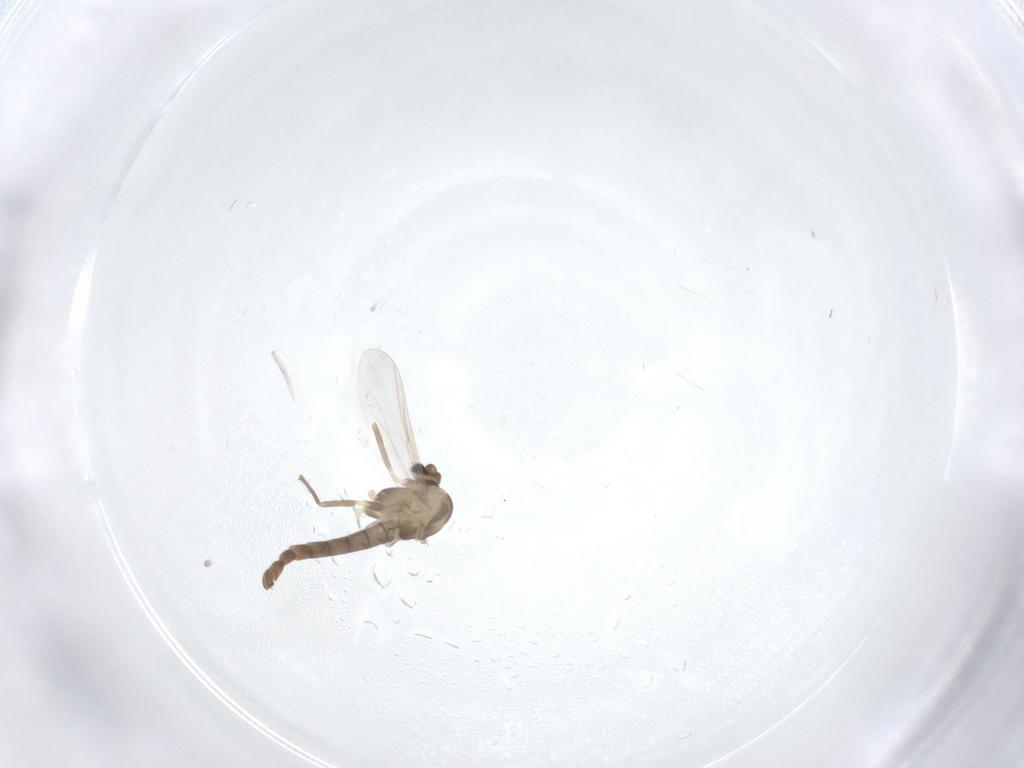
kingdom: Animalia
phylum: Arthropoda
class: Insecta
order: Diptera
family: Chironomidae
